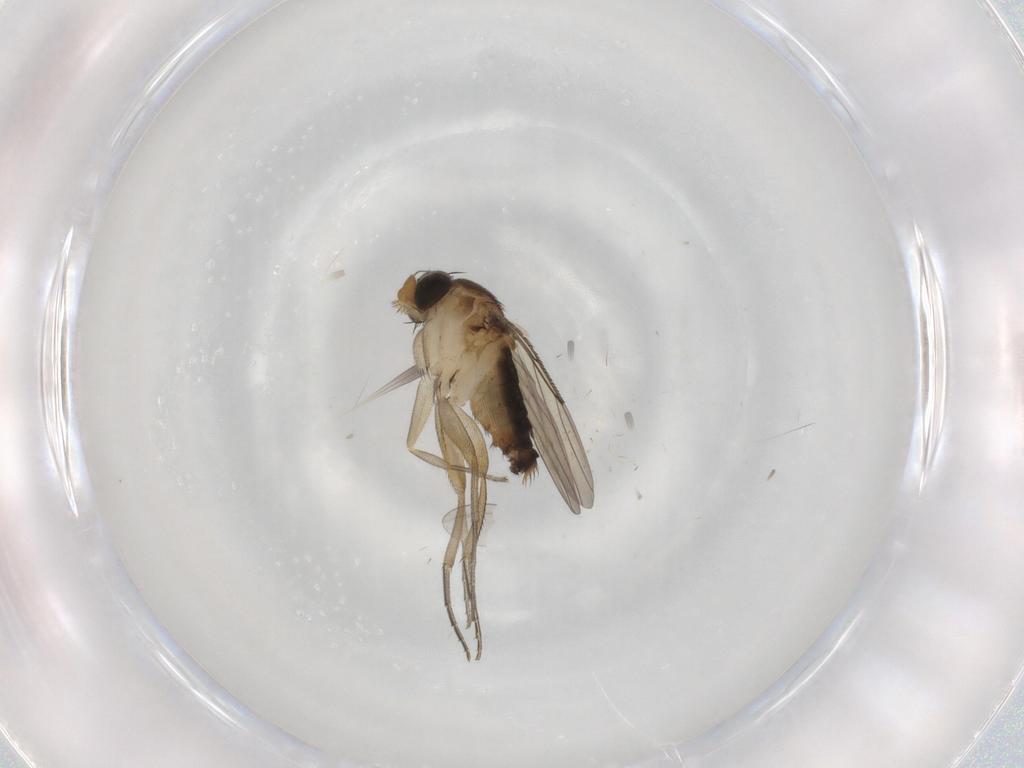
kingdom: Animalia
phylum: Arthropoda
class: Insecta
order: Diptera
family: Phoridae
